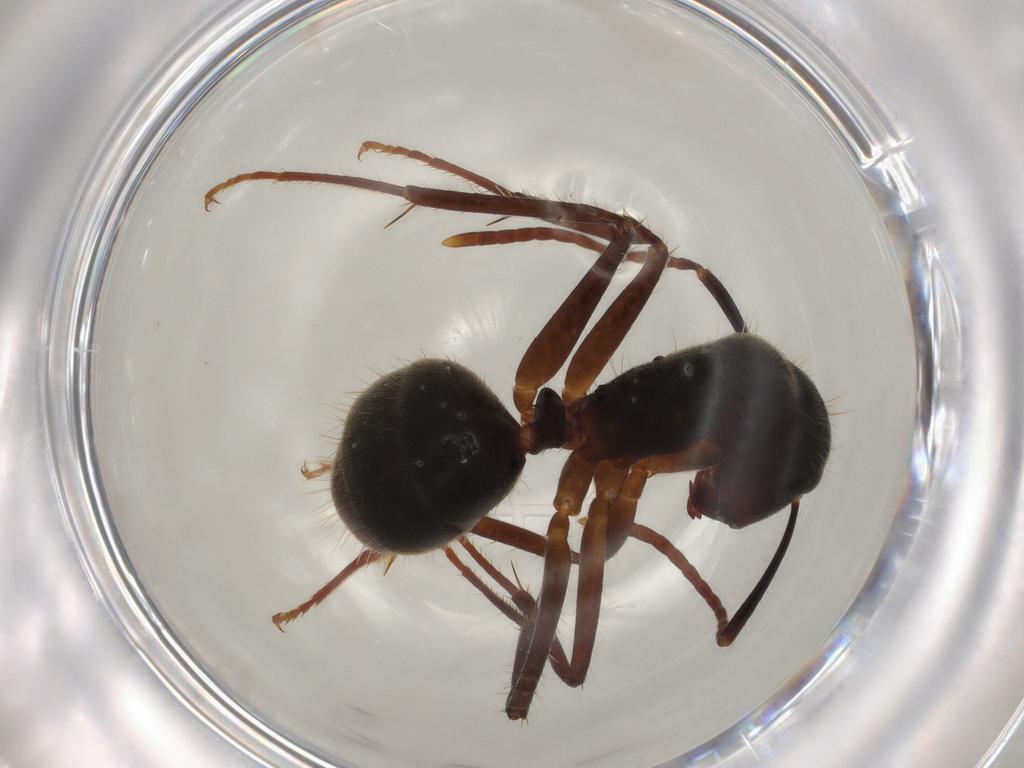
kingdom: Animalia
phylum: Arthropoda
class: Insecta
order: Hymenoptera
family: Formicidae
